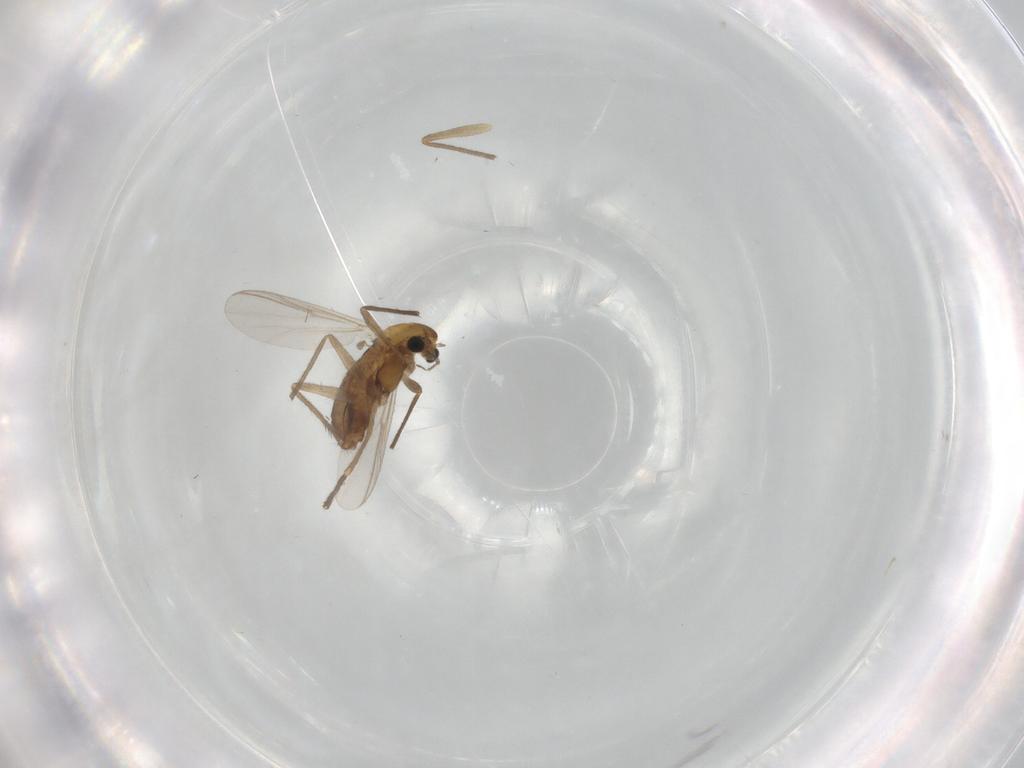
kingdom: Animalia
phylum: Arthropoda
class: Insecta
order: Diptera
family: Chironomidae
